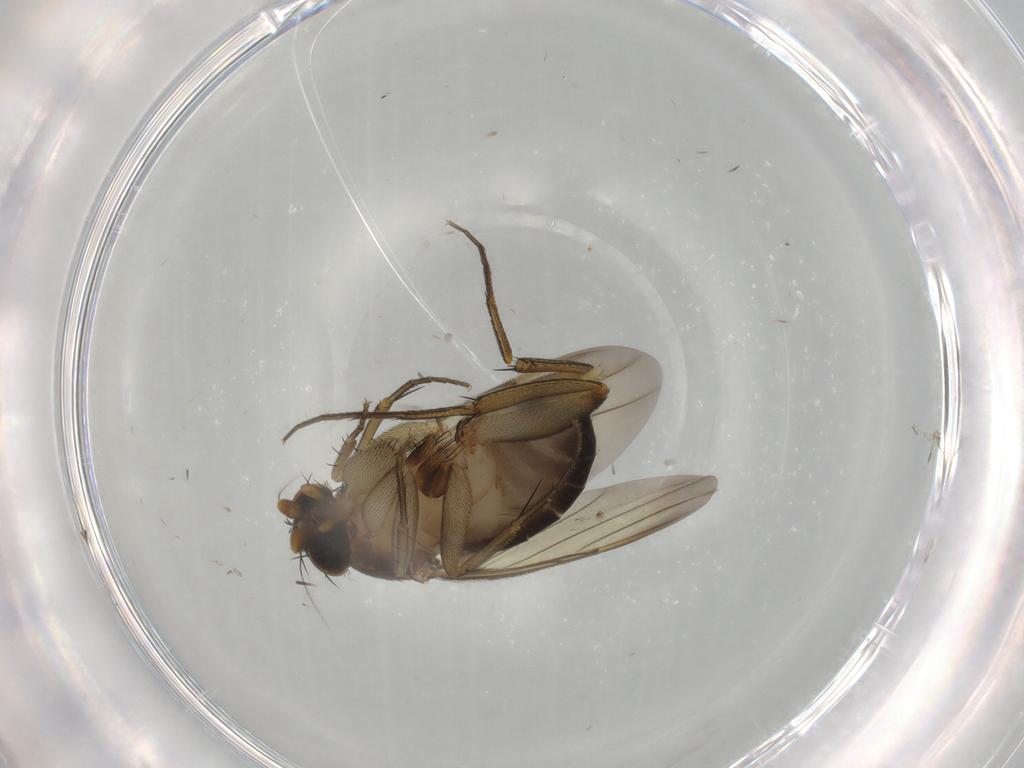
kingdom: Animalia
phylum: Arthropoda
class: Insecta
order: Diptera
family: Phoridae
